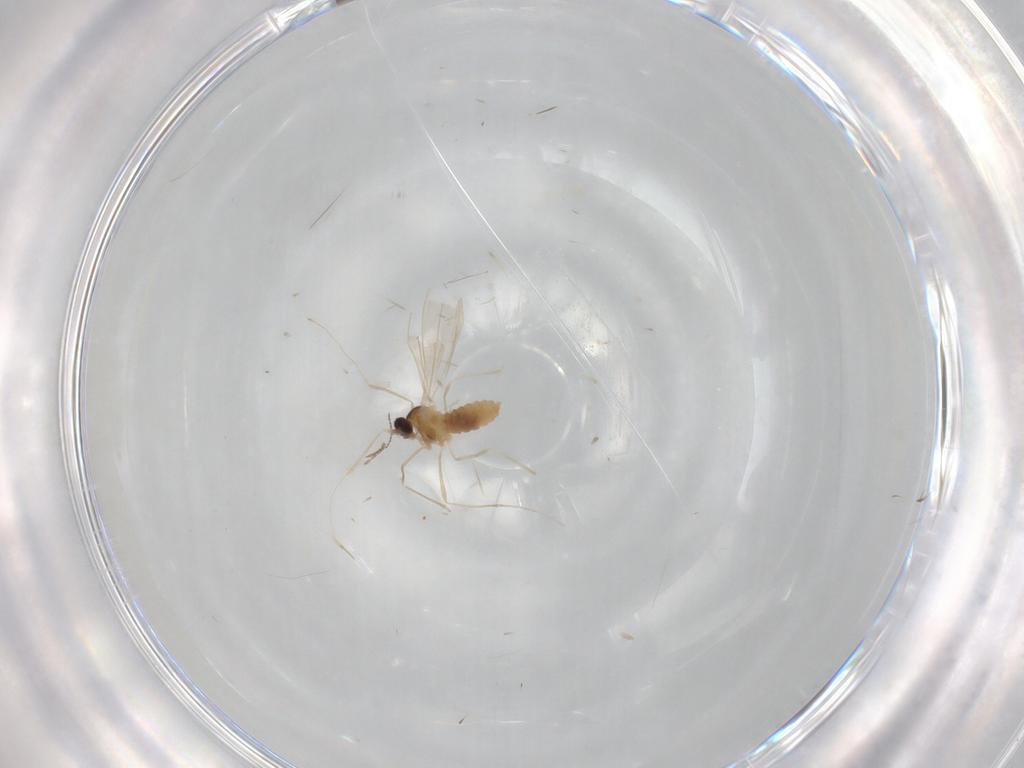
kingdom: Animalia
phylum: Arthropoda
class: Insecta
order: Diptera
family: Cecidomyiidae
